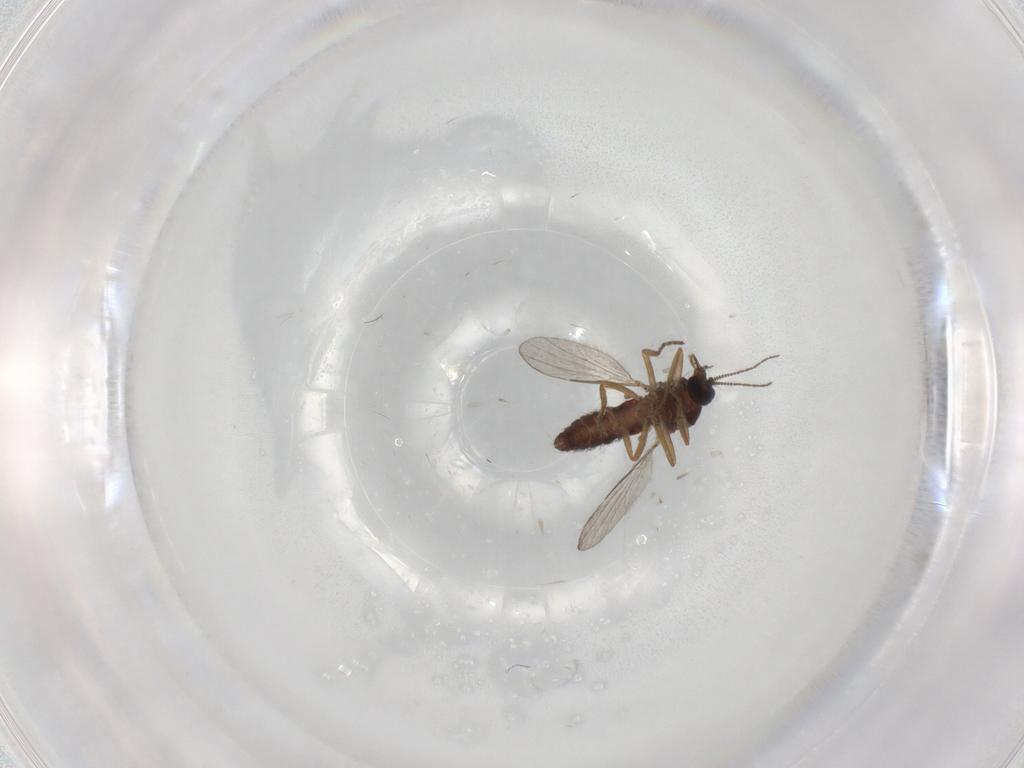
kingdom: Animalia
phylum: Arthropoda
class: Insecta
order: Diptera
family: Ceratopogonidae
